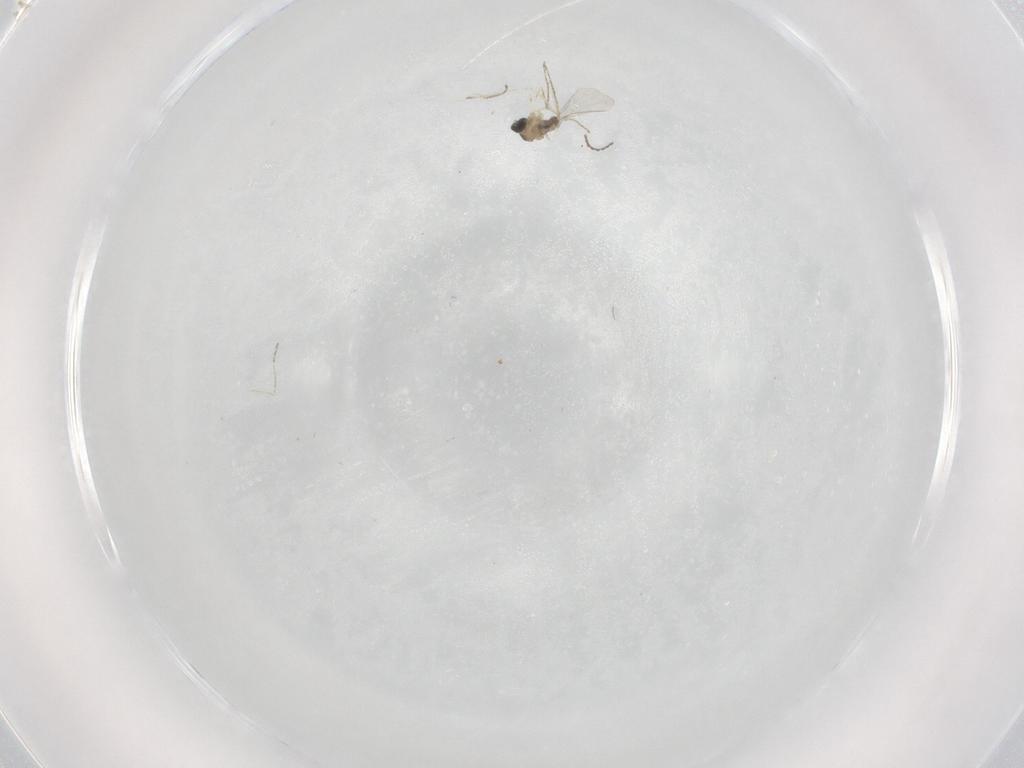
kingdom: Animalia
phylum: Arthropoda
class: Insecta
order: Diptera
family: Cecidomyiidae
